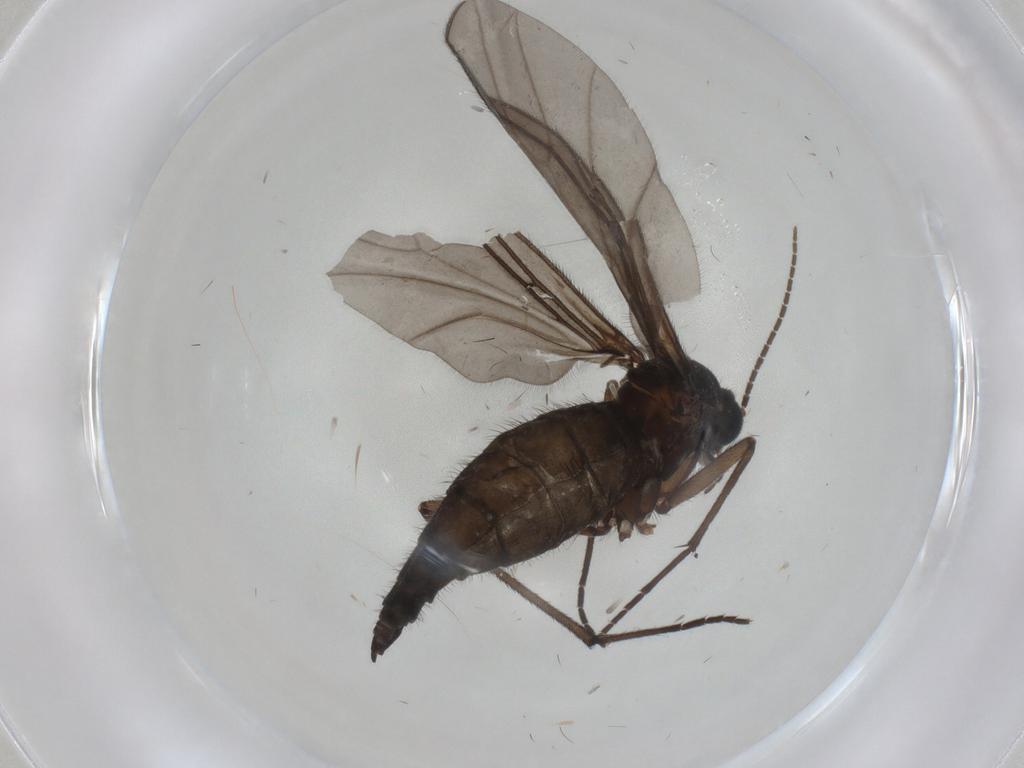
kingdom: Animalia
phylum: Arthropoda
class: Insecta
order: Diptera
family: Sciaridae
